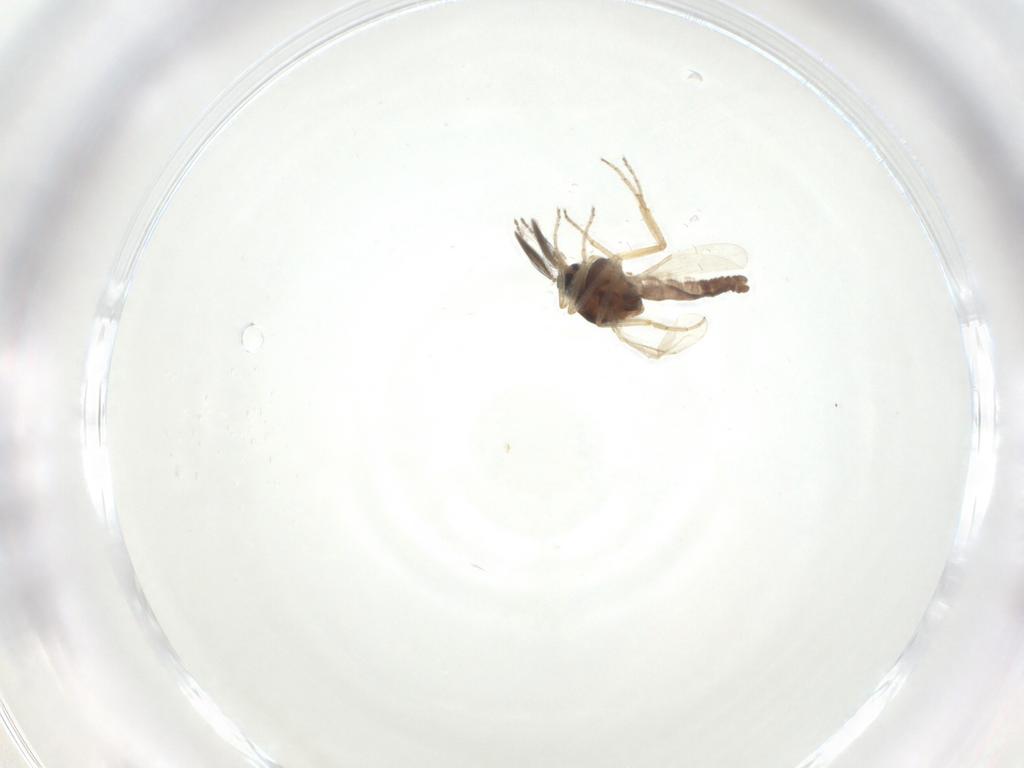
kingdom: Animalia
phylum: Arthropoda
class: Insecta
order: Diptera
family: Ceratopogonidae
